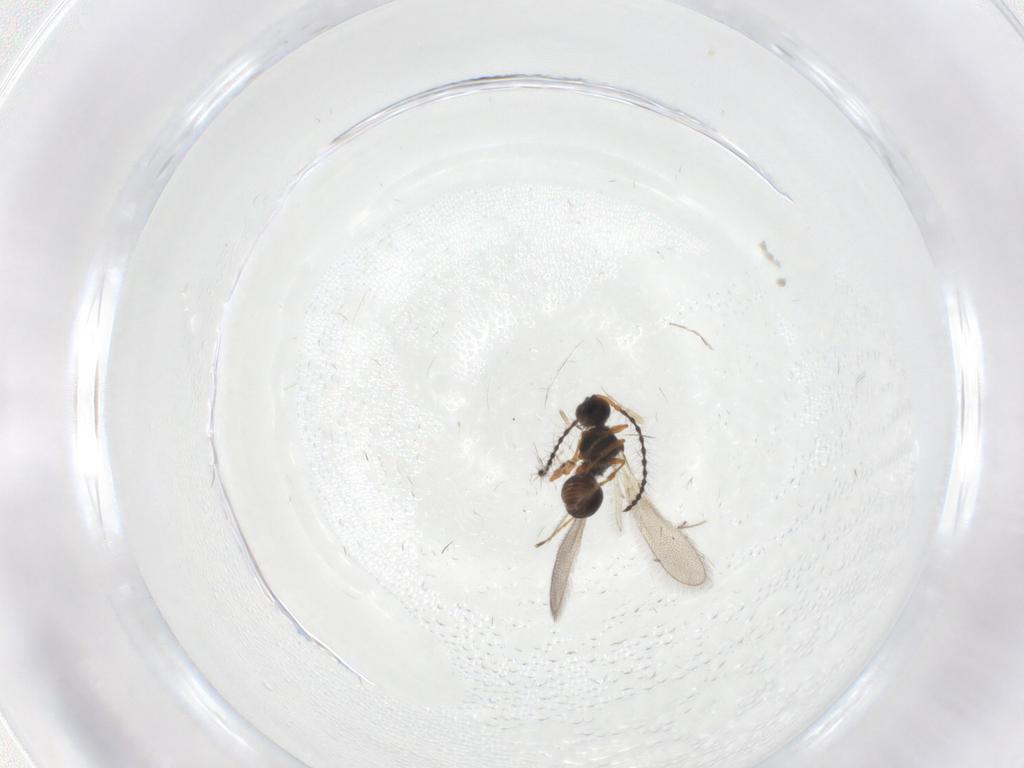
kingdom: Animalia
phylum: Arthropoda
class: Insecta
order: Hymenoptera
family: Diapriidae
